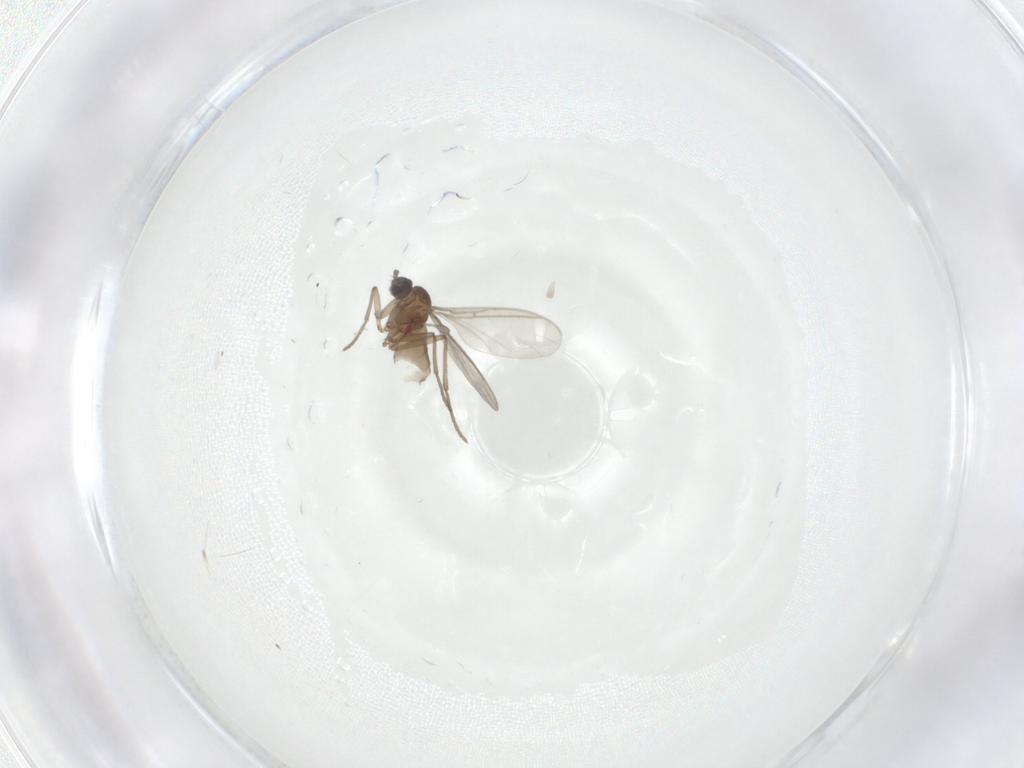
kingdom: Animalia
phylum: Arthropoda
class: Insecta
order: Diptera
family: Sciaridae
